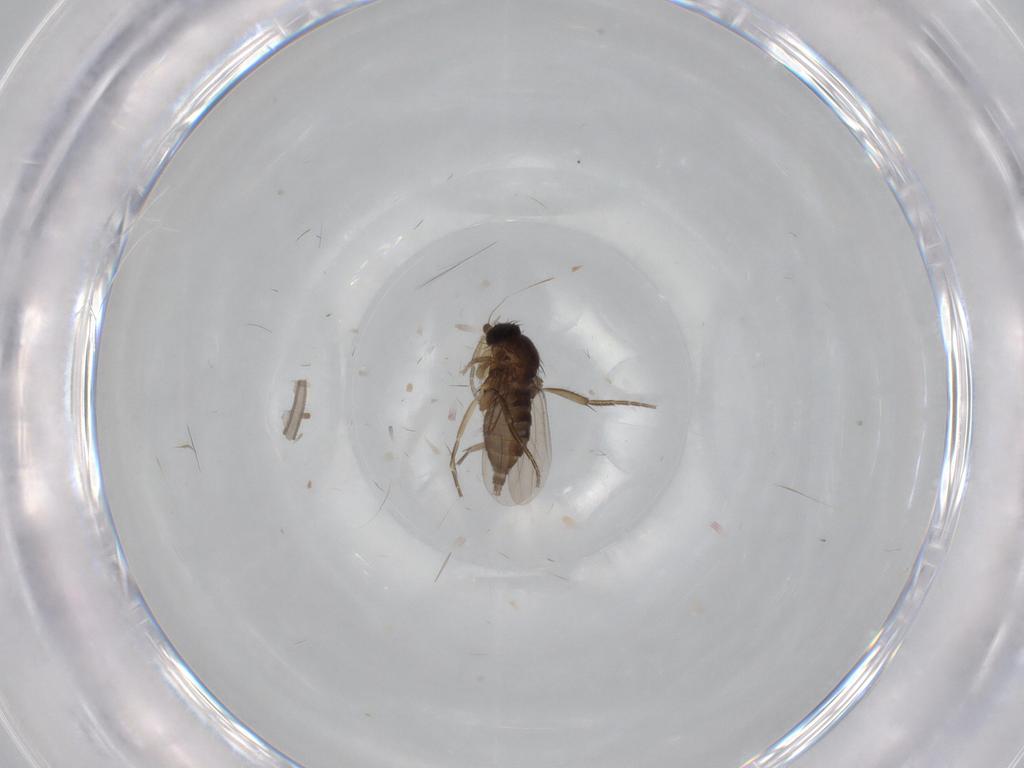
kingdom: Animalia
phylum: Arthropoda
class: Insecta
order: Diptera
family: Phoridae
